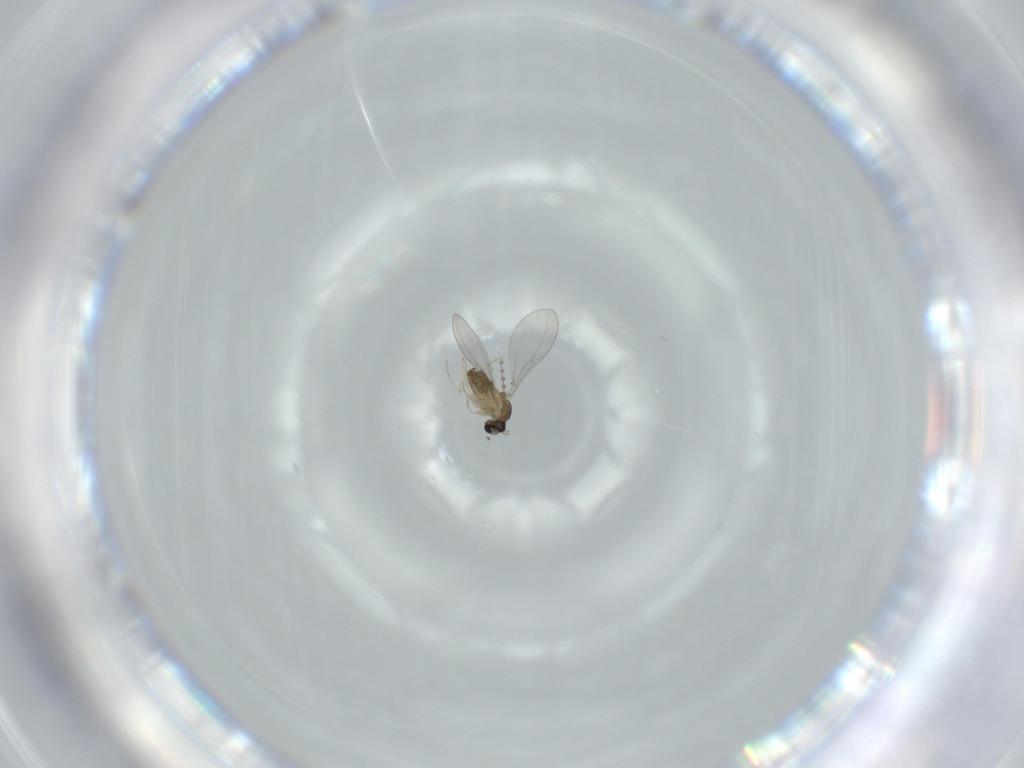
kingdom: Animalia
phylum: Arthropoda
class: Insecta
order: Diptera
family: Cecidomyiidae
